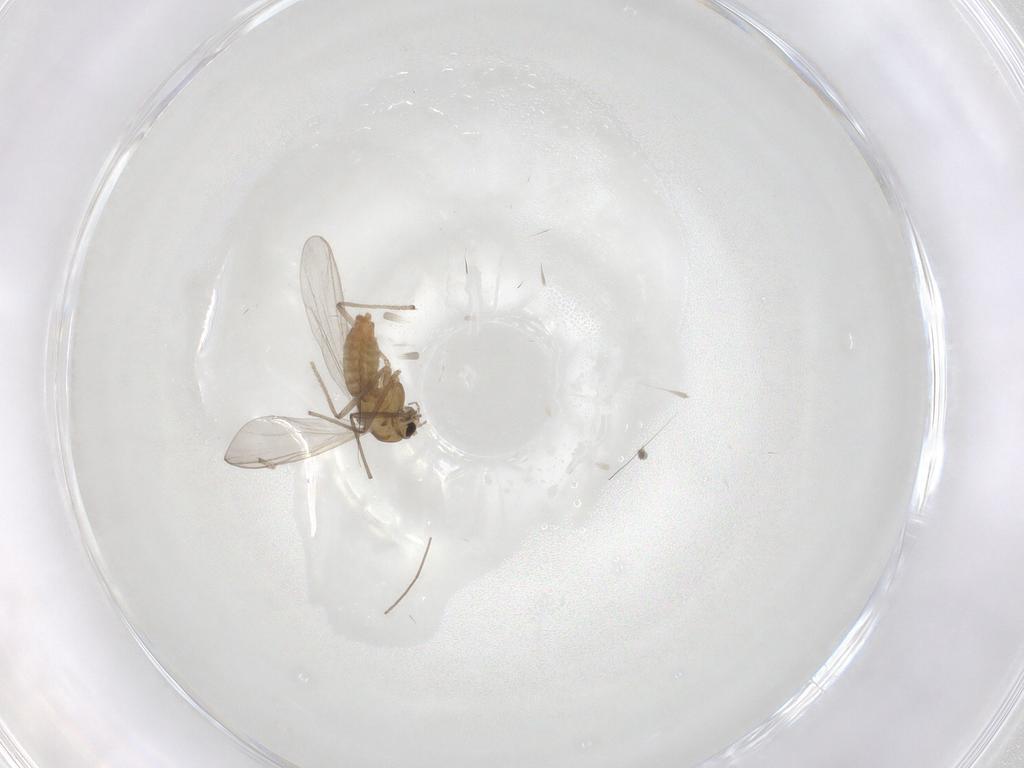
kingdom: Animalia
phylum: Arthropoda
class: Insecta
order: Diptera
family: Chironomidae
